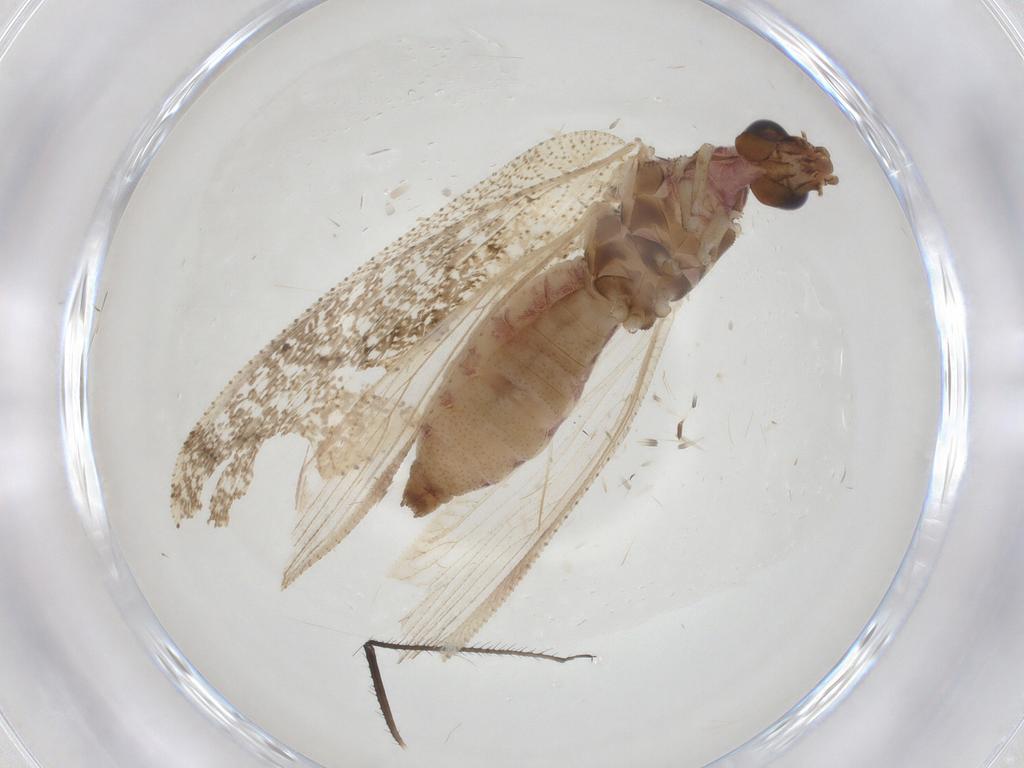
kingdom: Animalia
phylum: Arthropoda
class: Insecta
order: Neuroptera
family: Hemerobiidae
